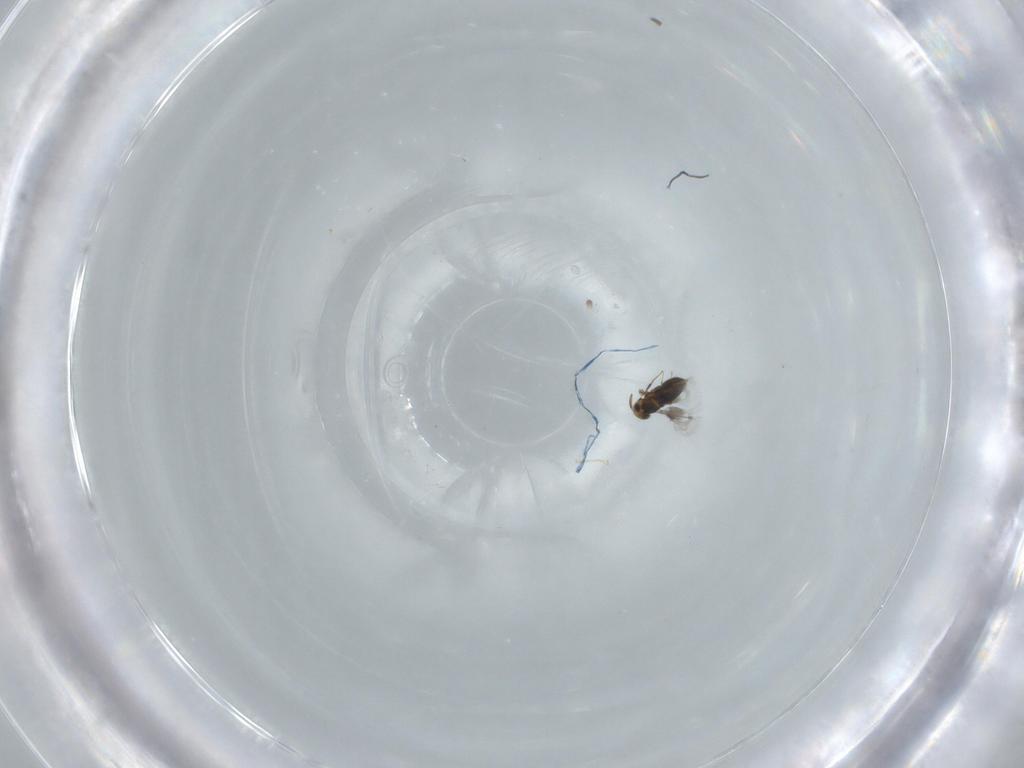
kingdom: Animalia
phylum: Arthropoda
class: Insecta
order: Hymenoptera
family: Signiphoridae
